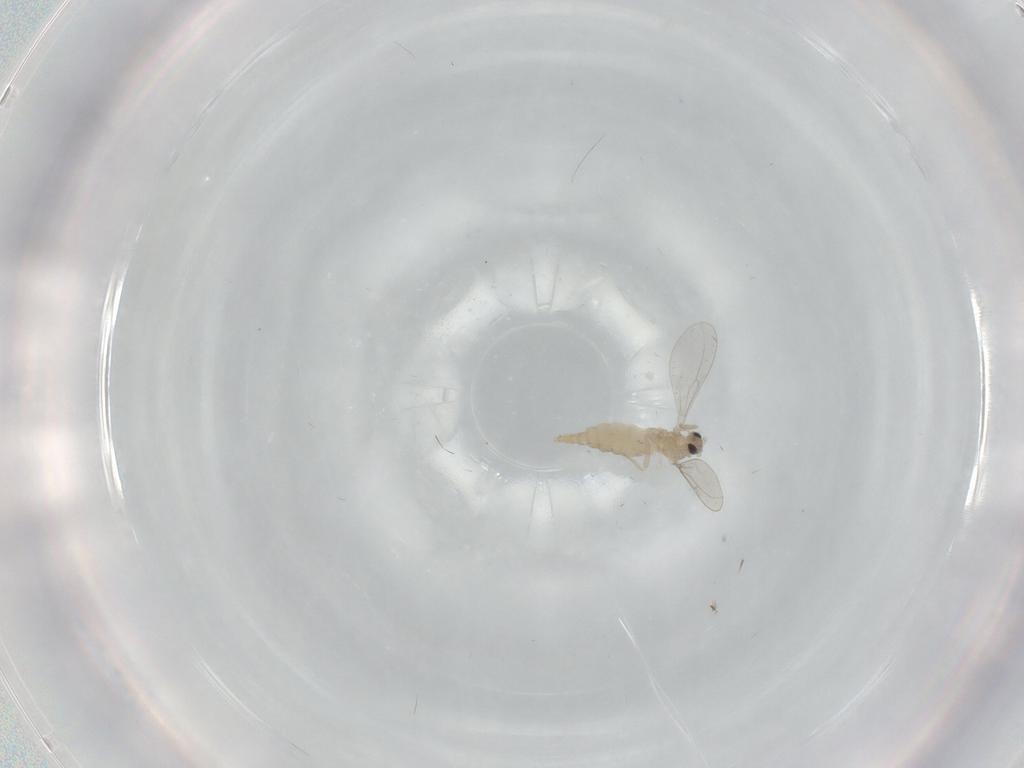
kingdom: Animalia
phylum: Arthropoda
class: Insecta
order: Diptera
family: Cecidomyiidae
